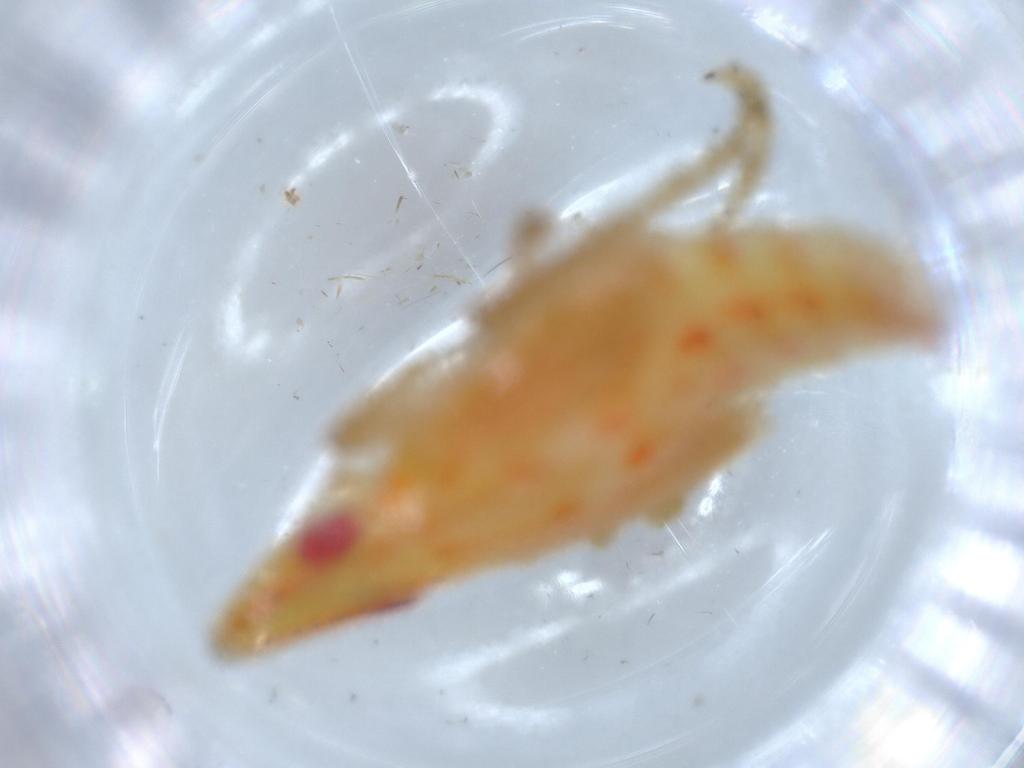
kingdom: Animalia
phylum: Arthropoda
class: Insecta
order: Hemiptera
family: Tropiduchidae
